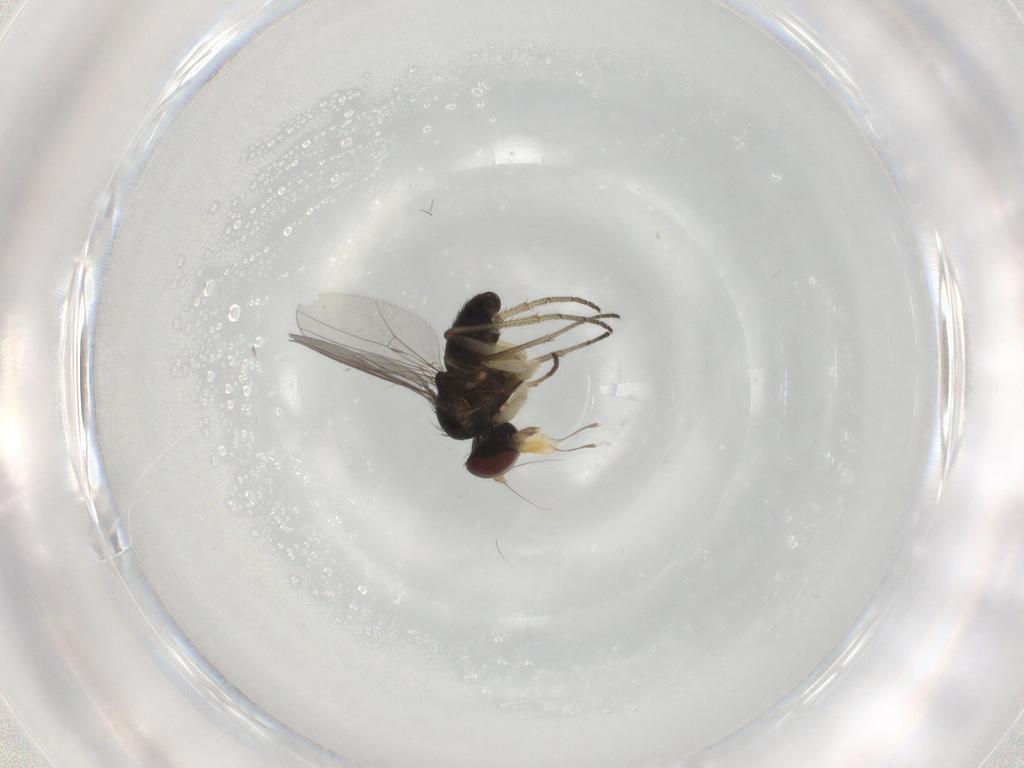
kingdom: Animalia
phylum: Arthropoda
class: Insecta
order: Diptera
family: Dolichopodidae
